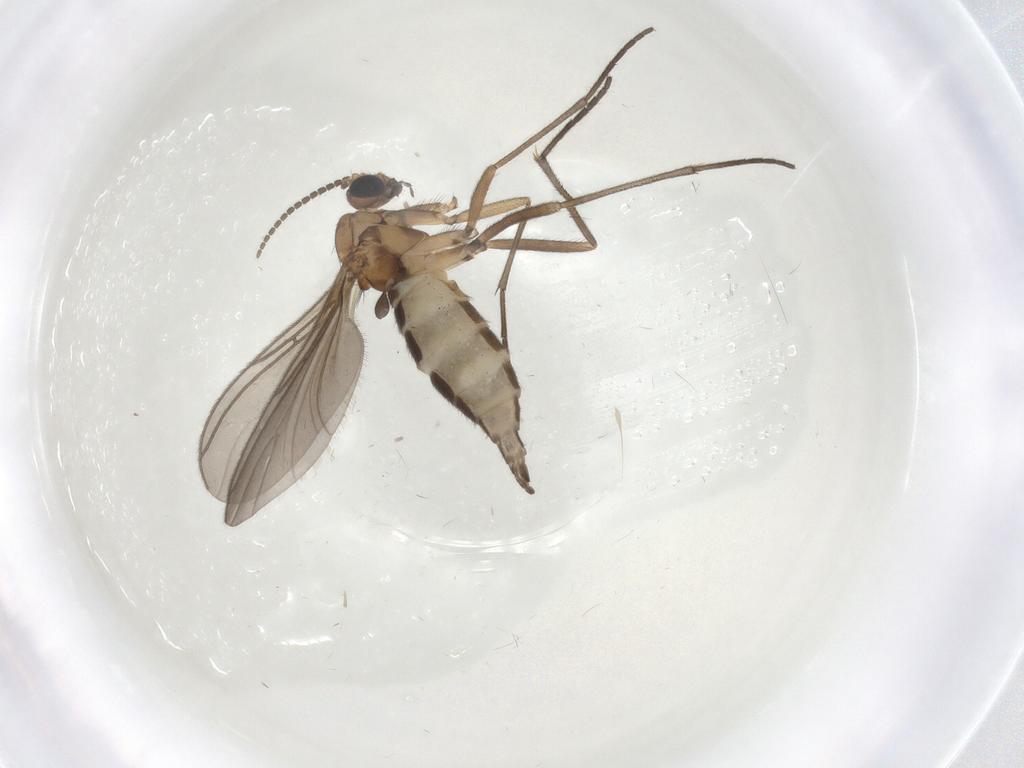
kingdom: Animalia
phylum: Arthropoda
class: Insecta
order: Diptera
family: Sciaridae
